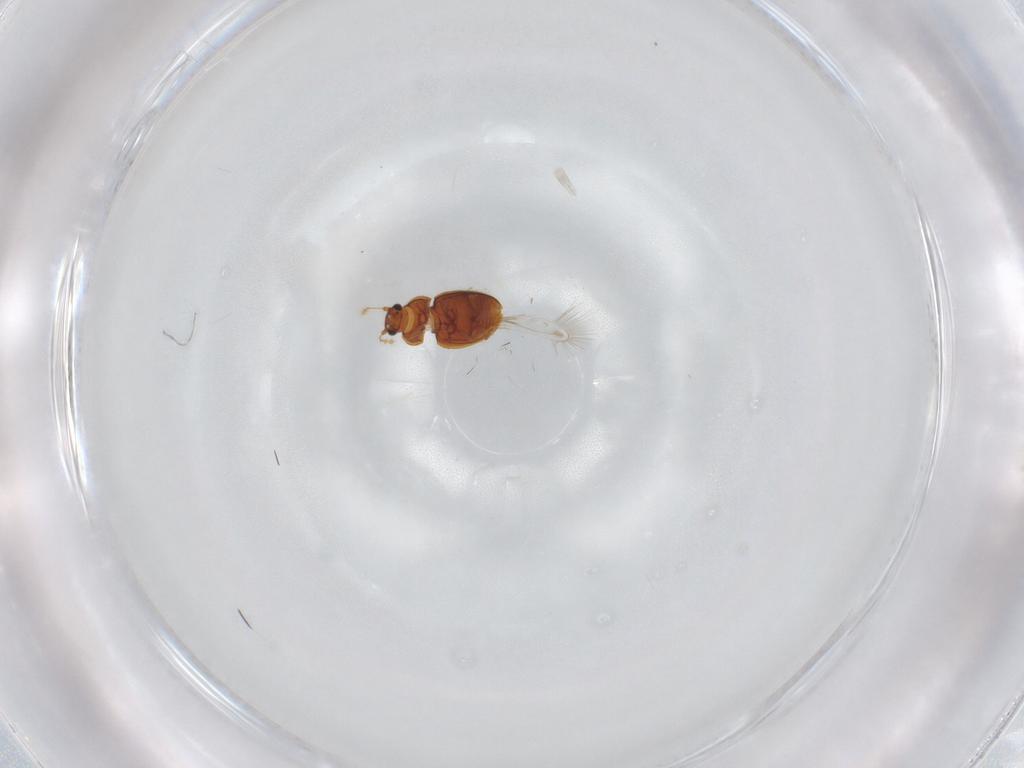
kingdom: Animalia
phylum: Arthropoda
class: Insecta
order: Coleoptera
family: Ptiliidae
